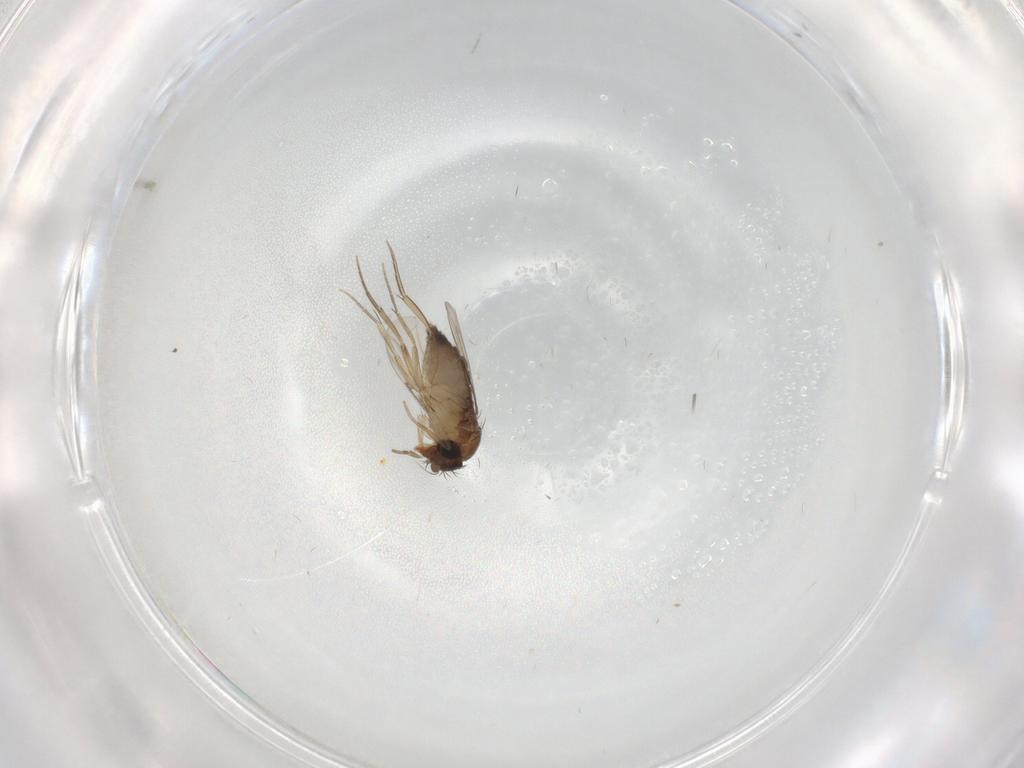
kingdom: Animalia
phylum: Arthropoda
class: Insecta
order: Diptera
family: Phoridae
